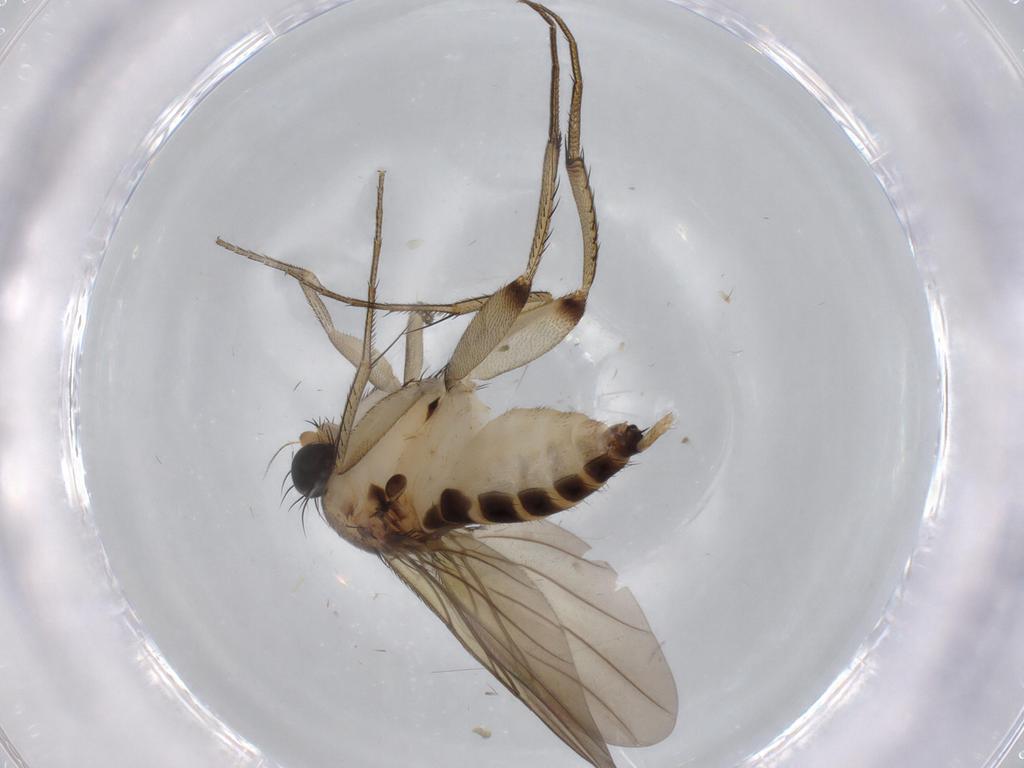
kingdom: Animalia
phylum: Arthropoda
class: Insecta
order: Diptera
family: Phoridae
